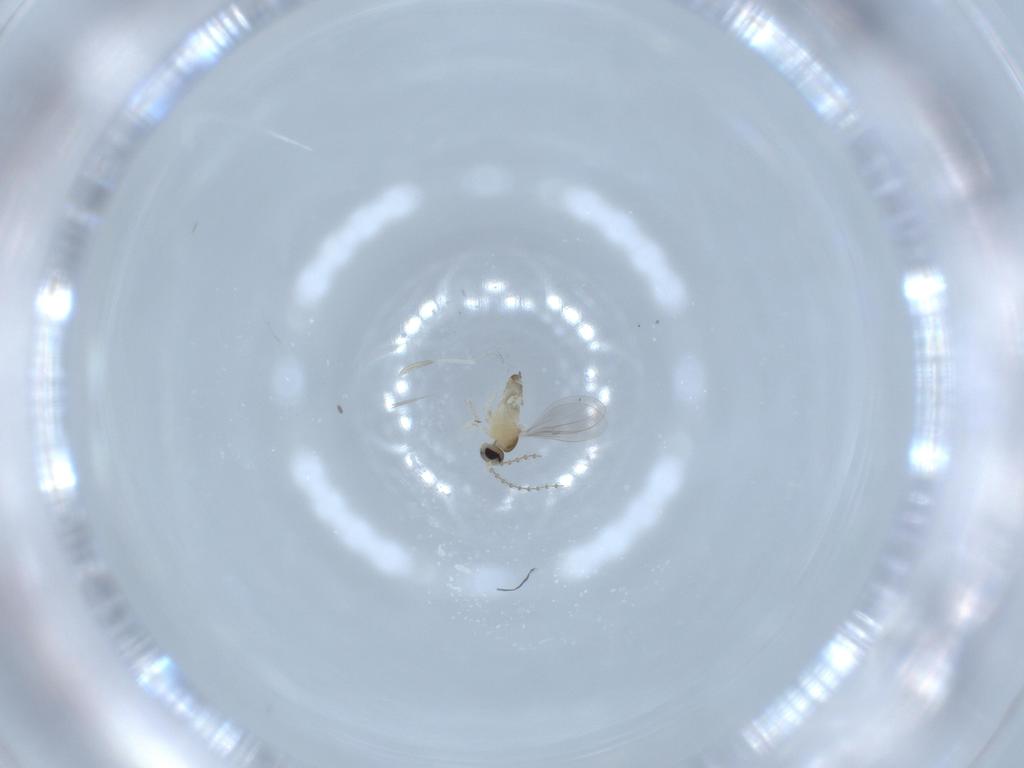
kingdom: Animalia
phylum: Arthropoda
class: Insecta
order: Diptera
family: Cecidomyiidae
